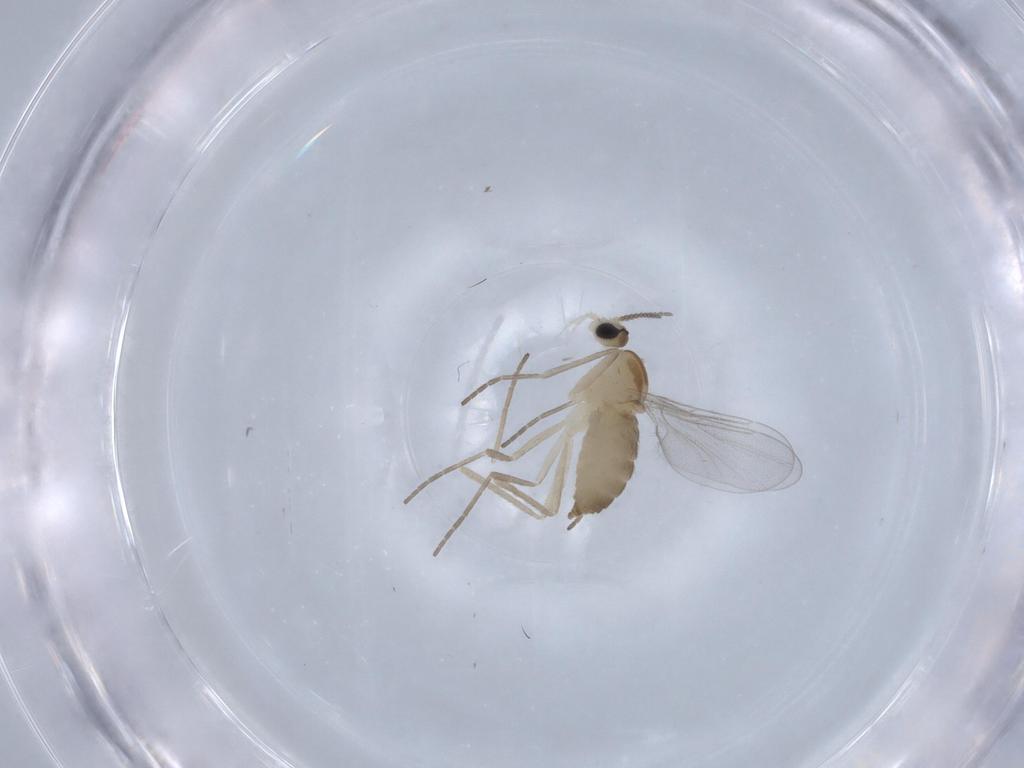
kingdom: Animalia
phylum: Arthropoda
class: Insecta
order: Diptera
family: Cecidomyiidae
